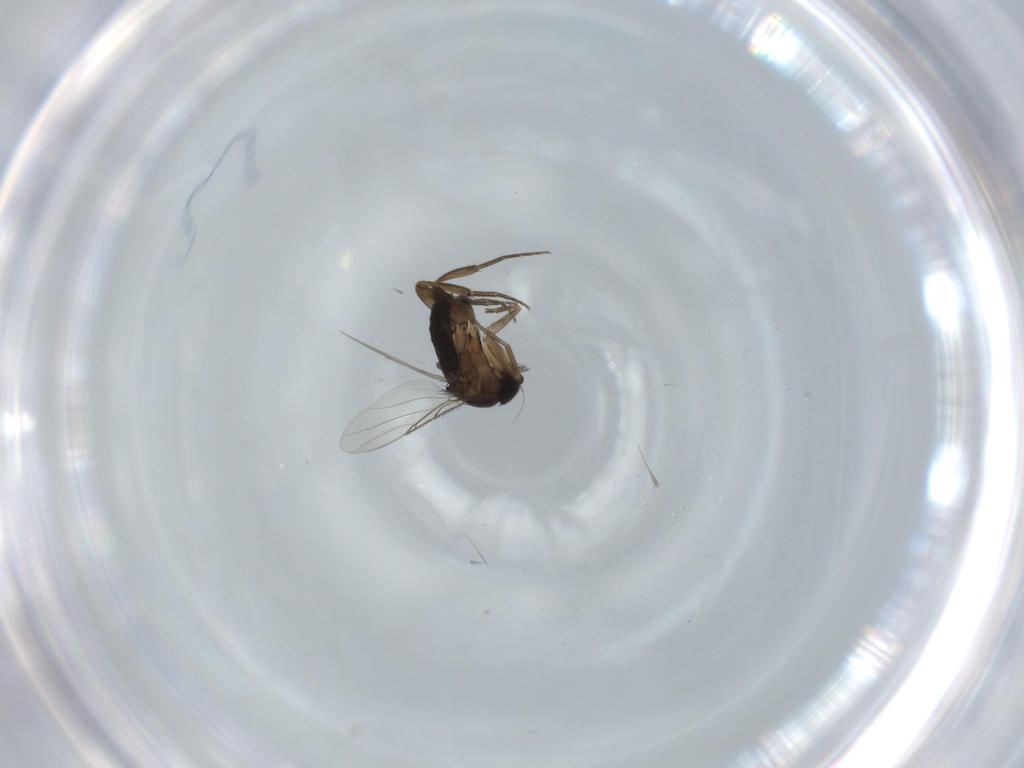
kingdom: Animalia
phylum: Arthropoda
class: Insecta
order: Diptera
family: Phoridae
